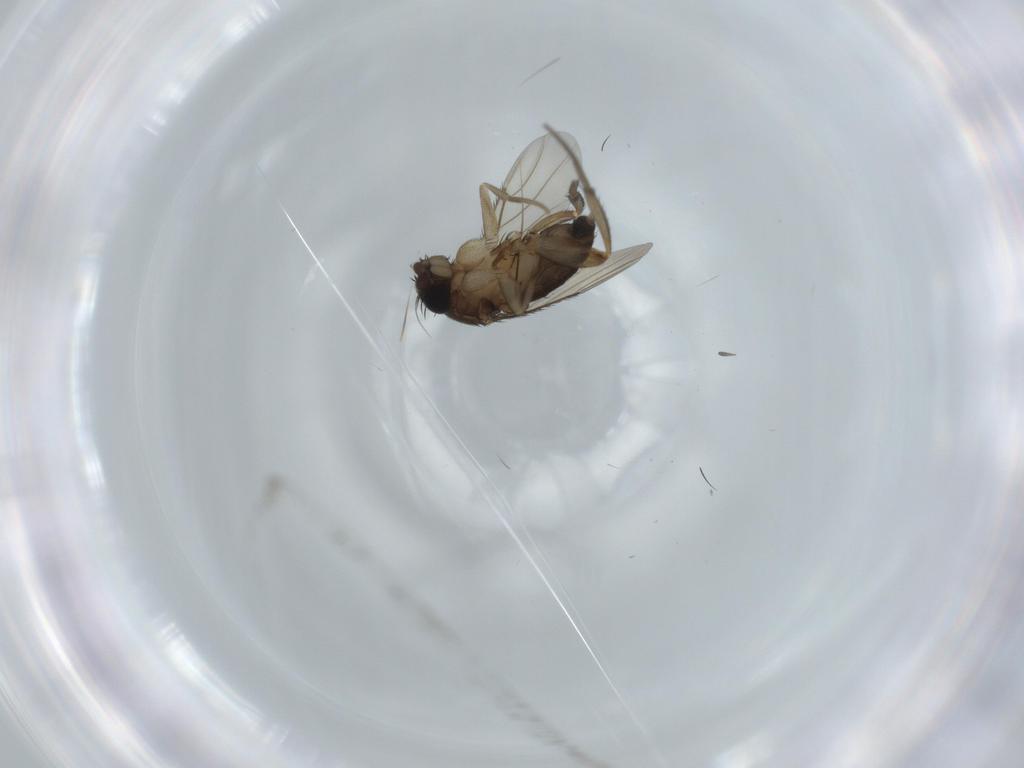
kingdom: Animalia
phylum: Arthropoda
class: Insecta
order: Diptera
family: Phoridae
